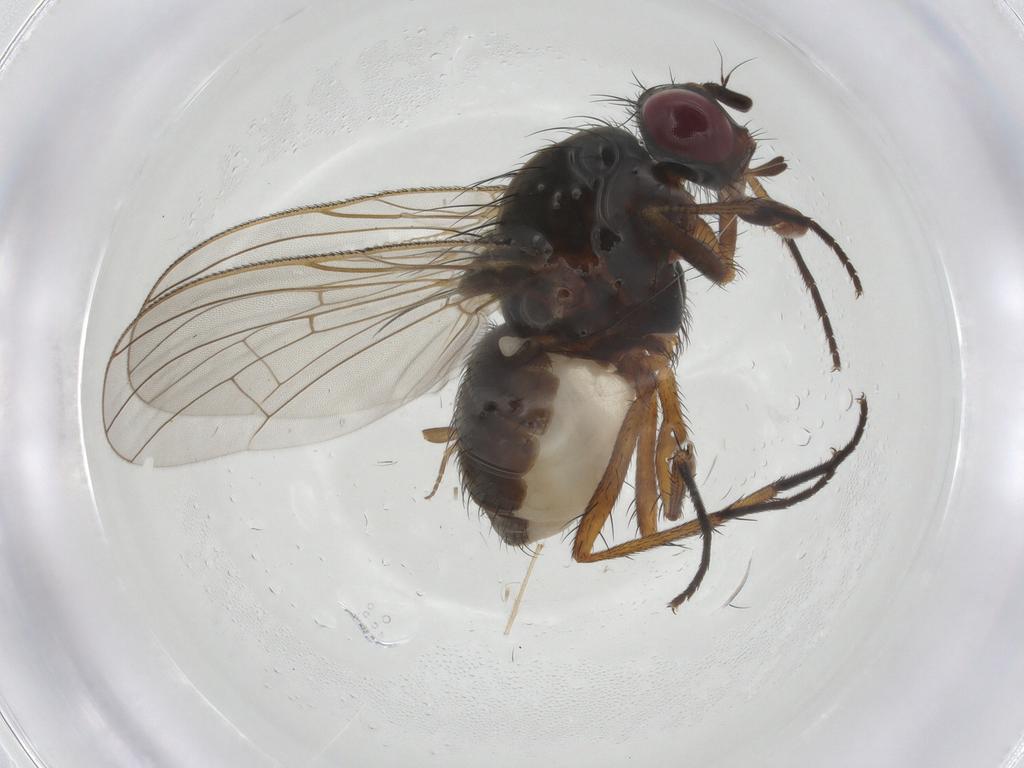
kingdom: Animalia
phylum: Arthropoda
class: Insecta
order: Diptera
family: Anthomyiidae
